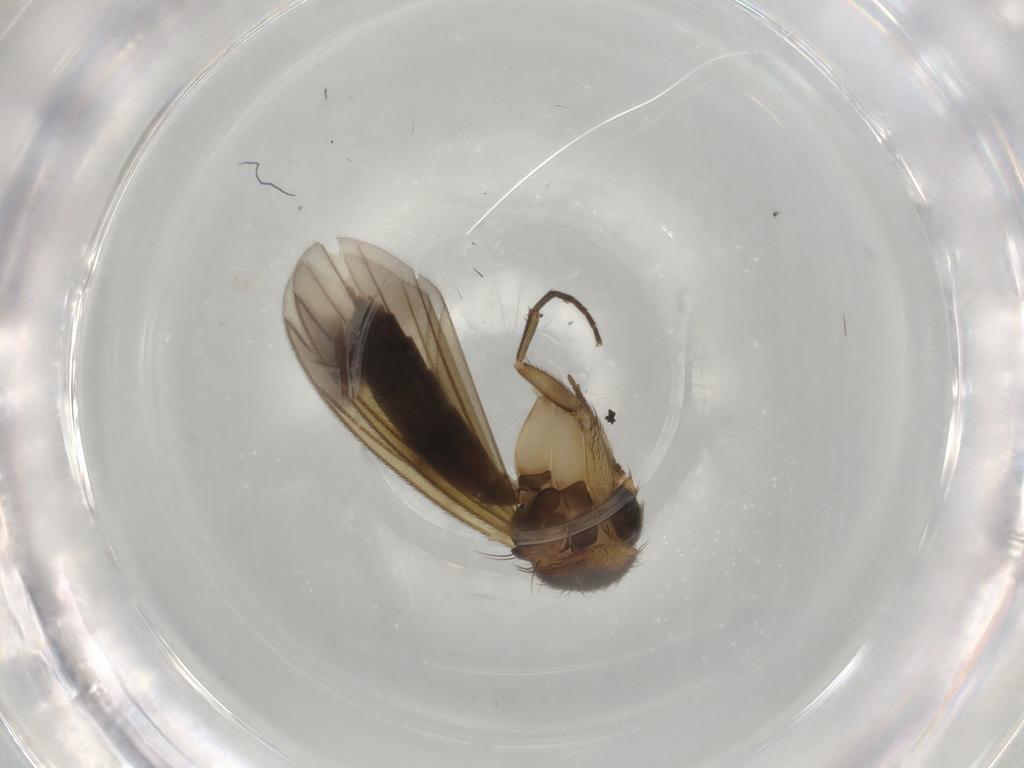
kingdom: Animalia
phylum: Arthropoda
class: Insecta
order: Diptera
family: Mycetophilidae
